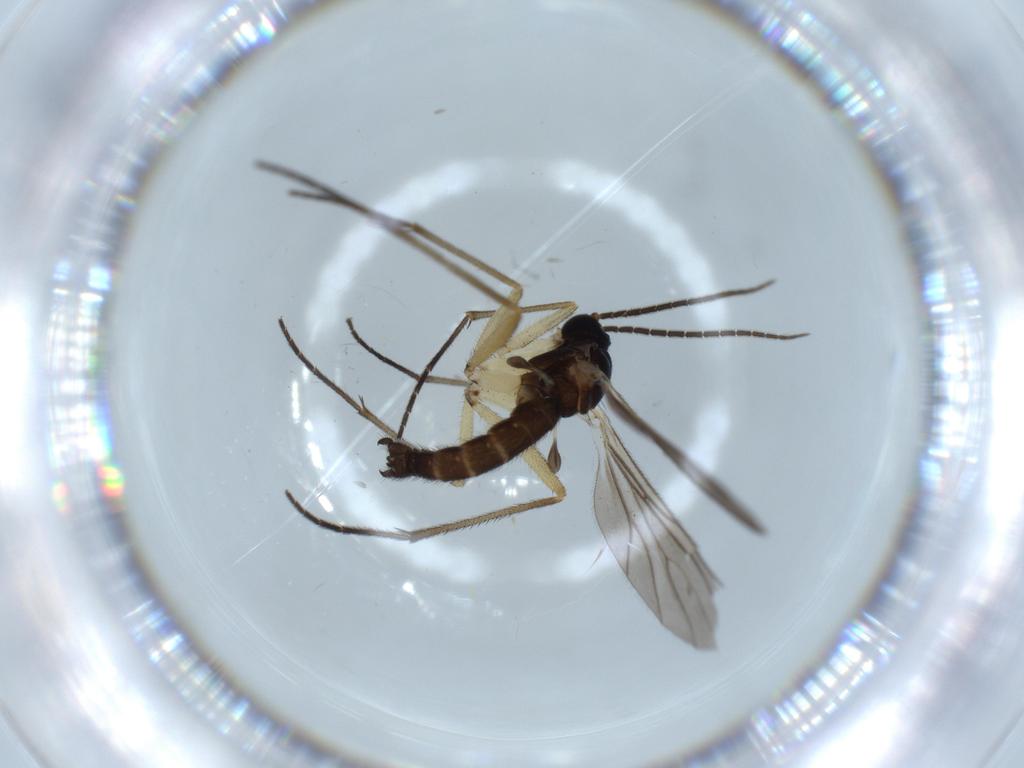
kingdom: Animalia
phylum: Arthropoda
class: Insecta
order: Diptera
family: Sciaridae
